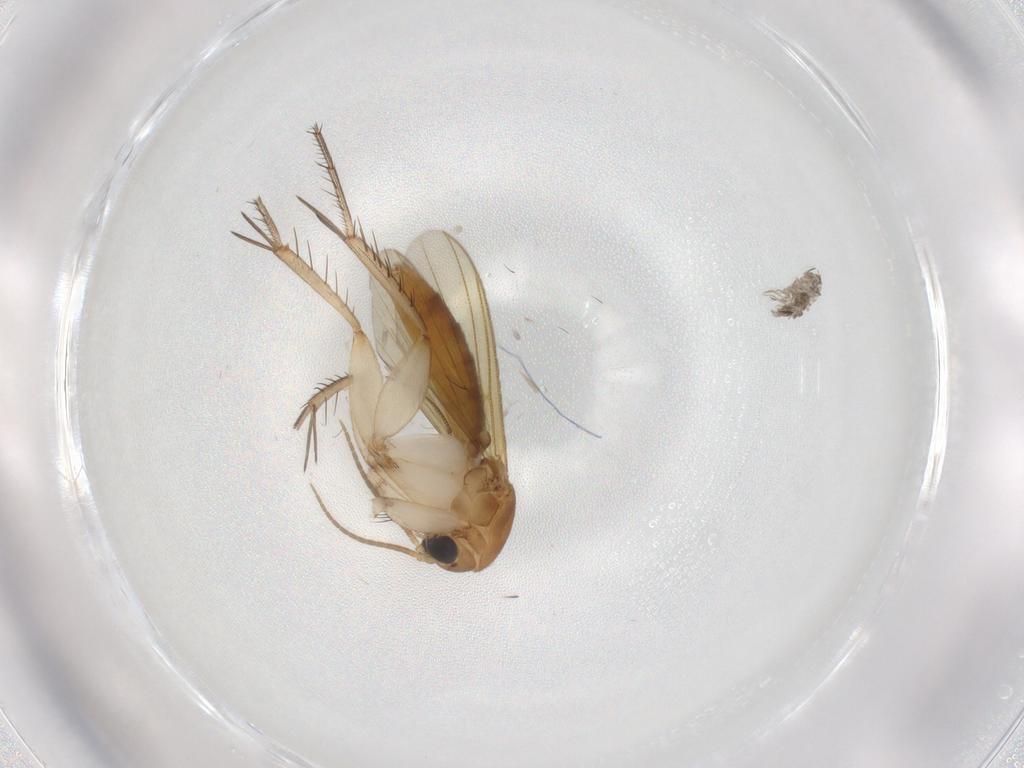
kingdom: Animalia
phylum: Arthropoda
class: Insecta
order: Diptera
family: Mycetophilidae
